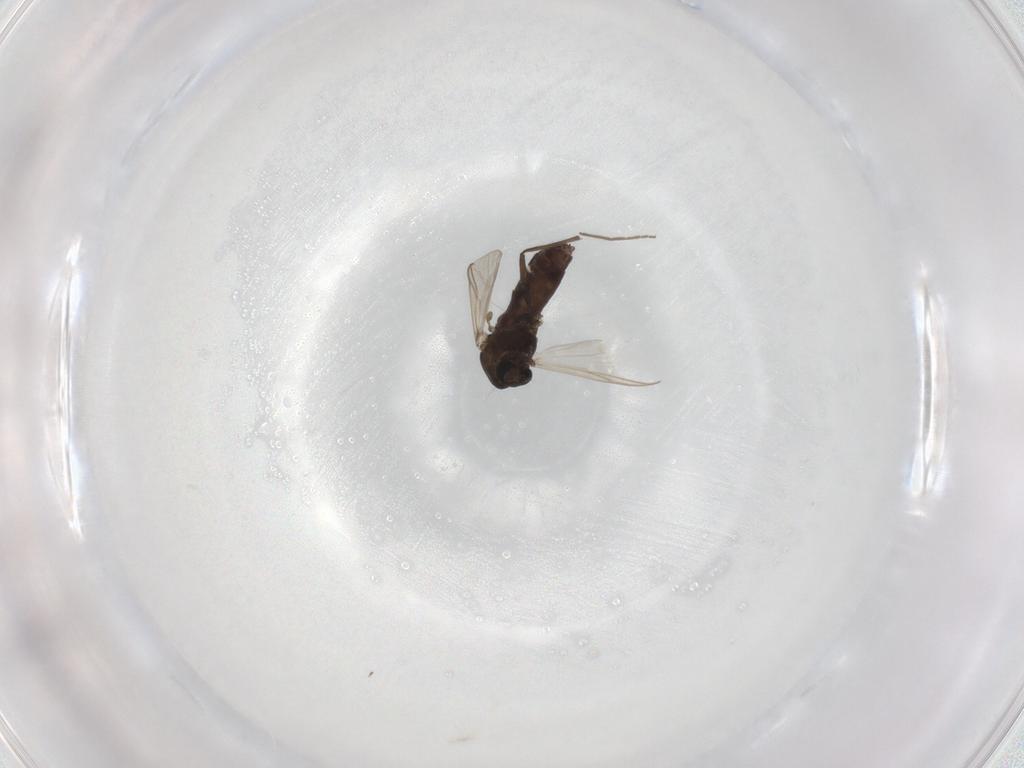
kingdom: Animalia
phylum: Arthropoda
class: Insecta
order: Diptera
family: Chironomidae
